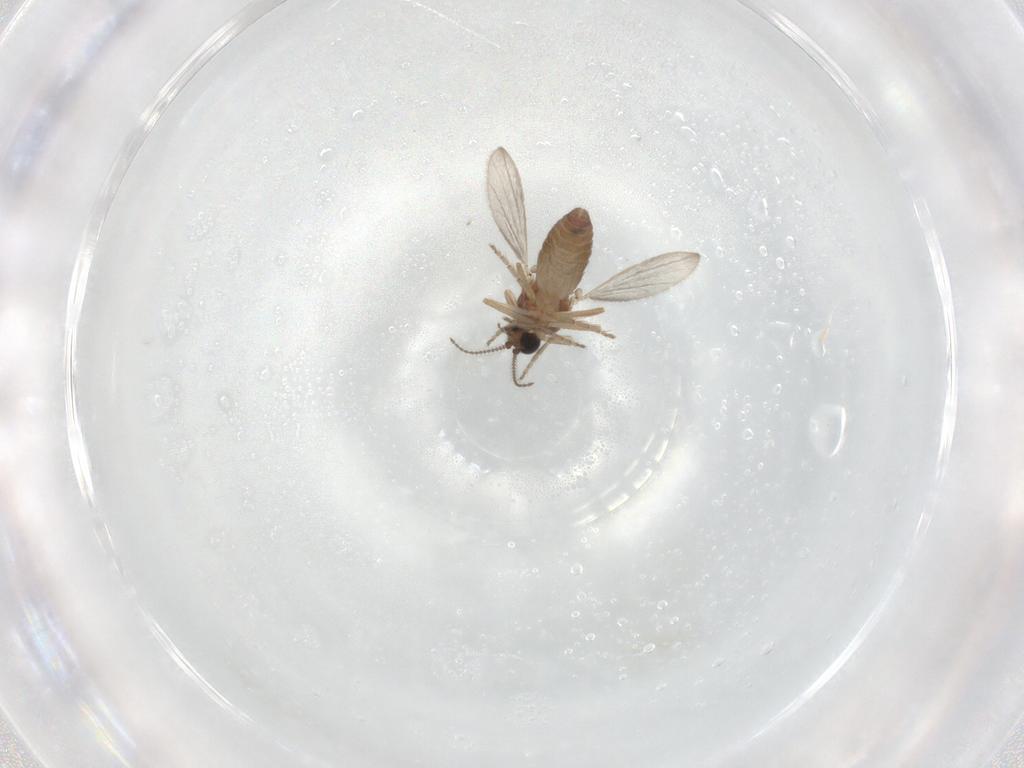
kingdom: Animalia
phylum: Arthropoda
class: Insecta
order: Diptera
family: Ceratopogonidae
